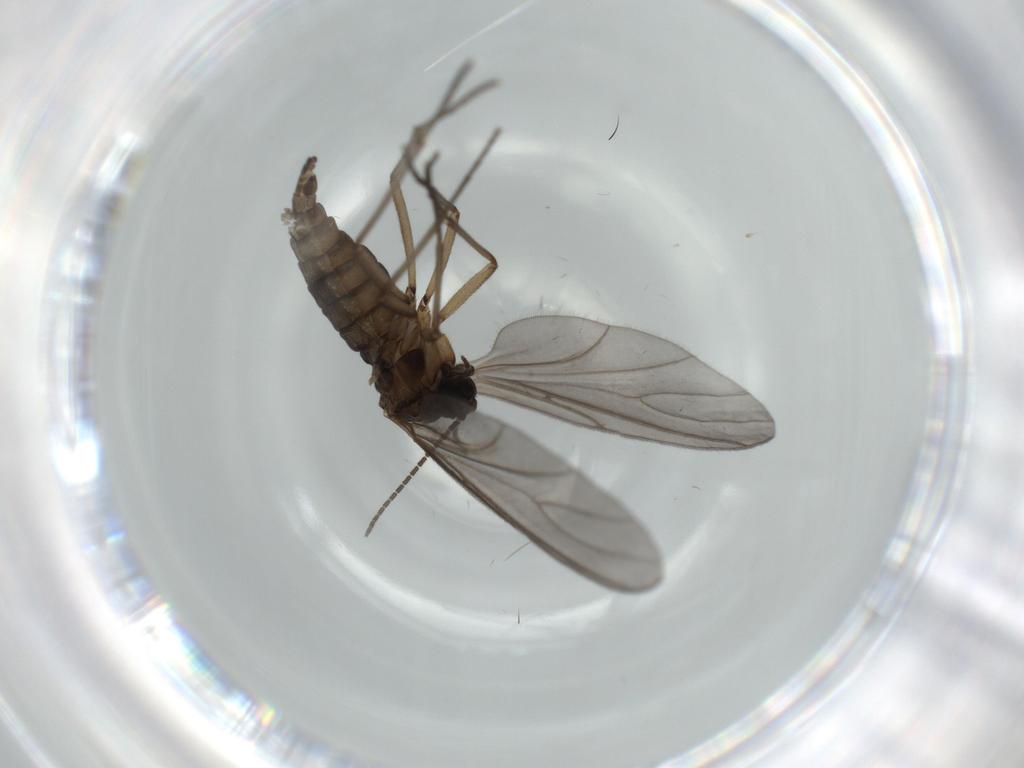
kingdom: Animalia
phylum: Arthropoda
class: Insecta
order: Diptera
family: Sciaridae
